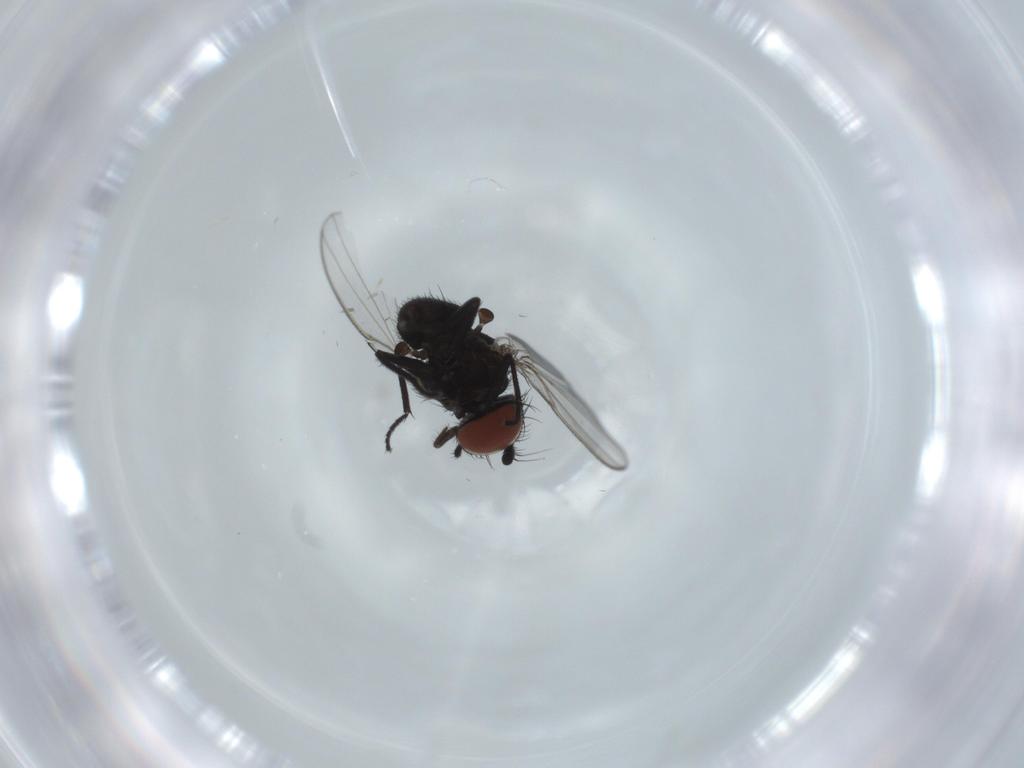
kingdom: Animalia
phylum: Arthropoda
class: Insecta
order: Diptera
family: Milichiidae
